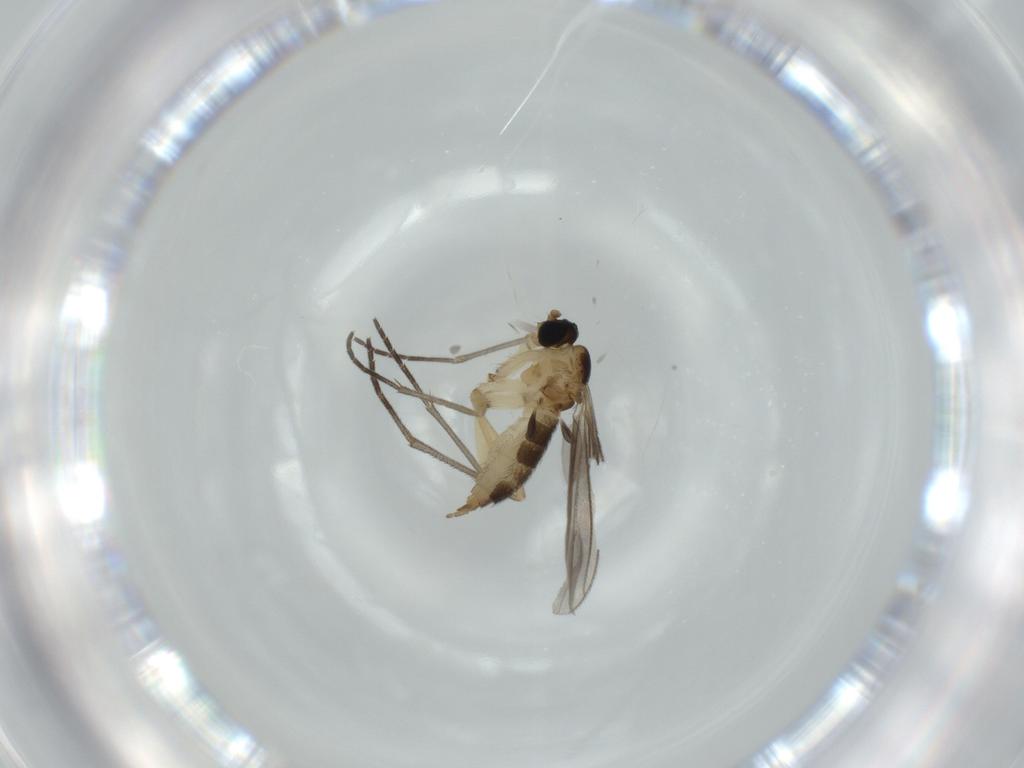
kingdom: Animalia
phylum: Arthropoda
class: Insecta
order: Diptera
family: Sciaridae
